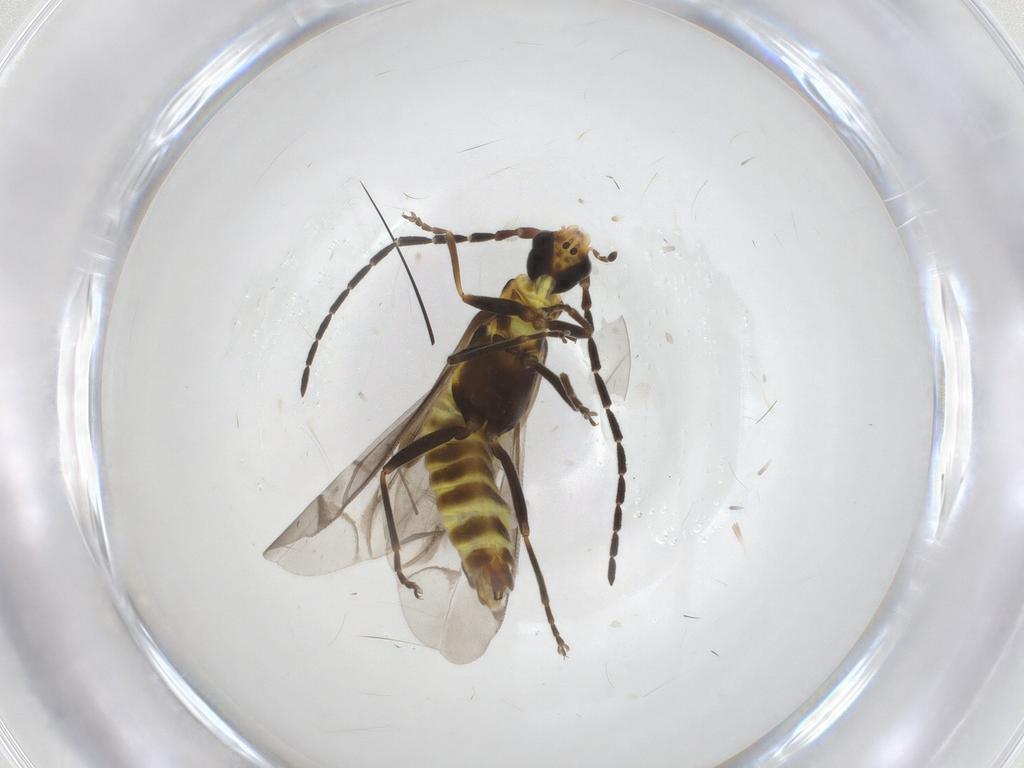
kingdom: Animalia
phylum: Arthropoda
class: Insecta
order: Coleoptera
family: Cantharidae
